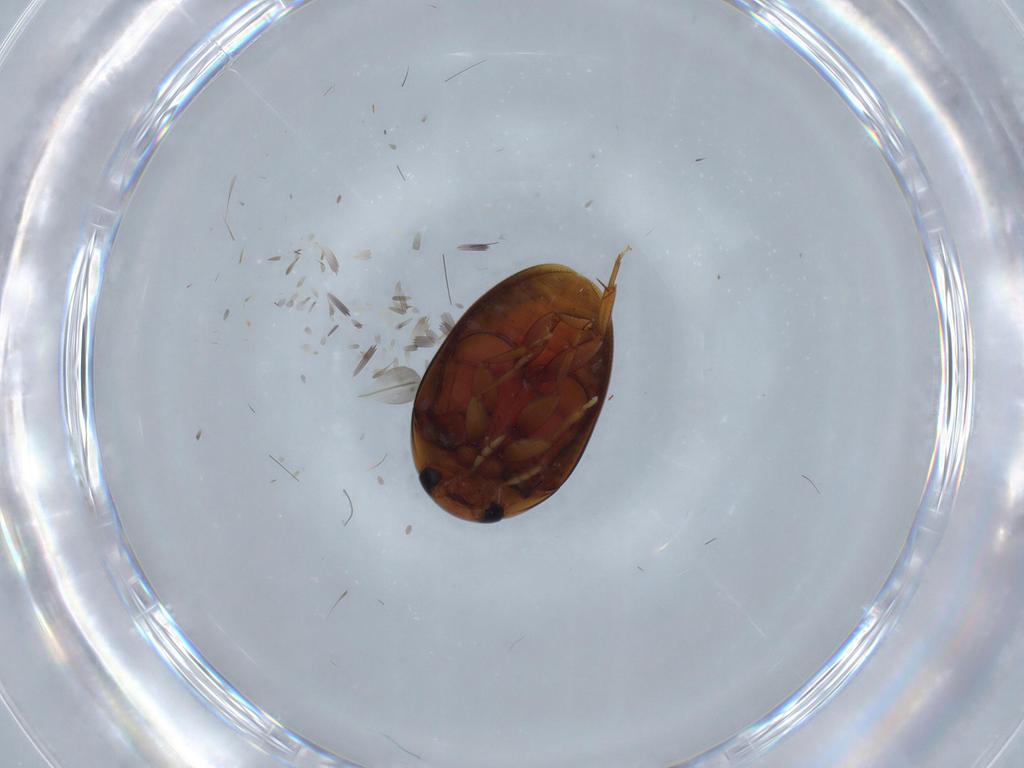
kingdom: Animalia
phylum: Arthropoda
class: Insecta
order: Coleoptera
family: Phalacridae
